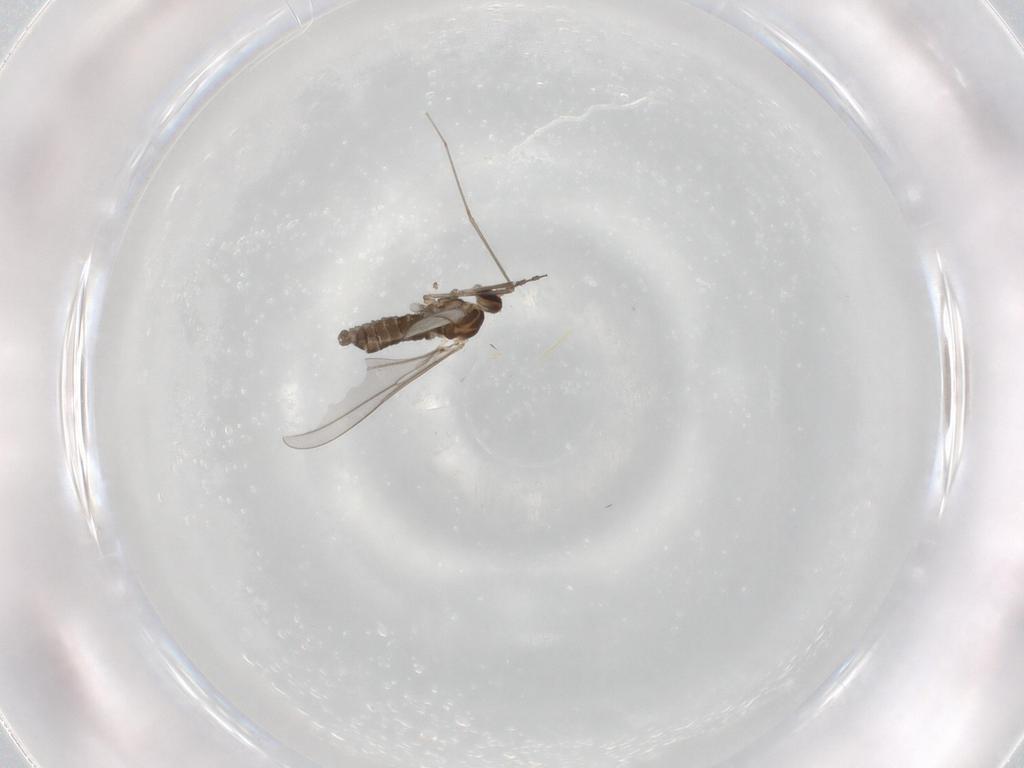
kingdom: Animalia
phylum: Arthropoda
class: Insecta
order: Diptera
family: Cecidomyiidae
